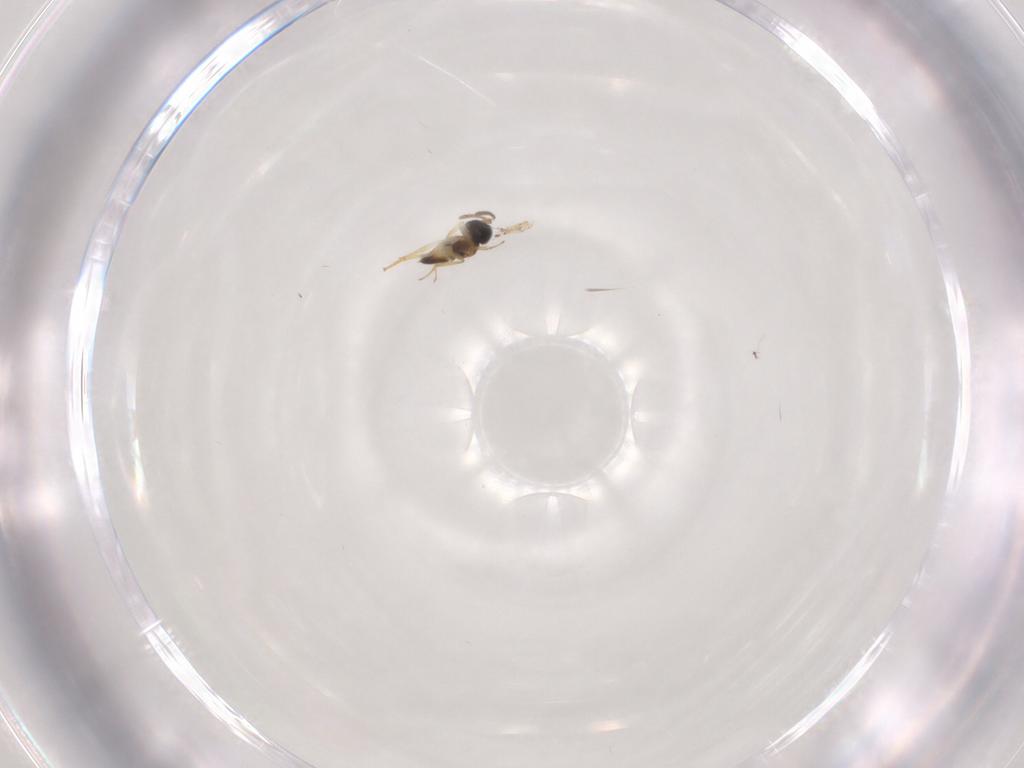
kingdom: Animalia
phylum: Arthropoda
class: Insecta
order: Diptera
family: Ceratopogonidae
